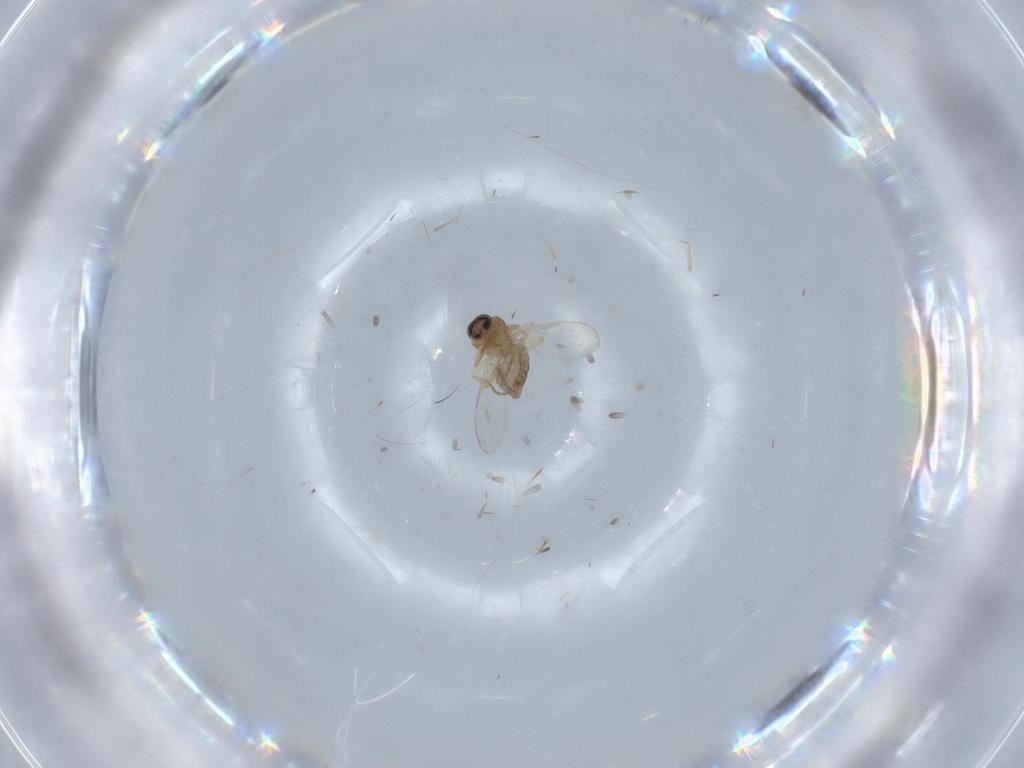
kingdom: Animalia
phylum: Arthropoda
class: Insecta
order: Diptera
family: Ceratopogonidae
